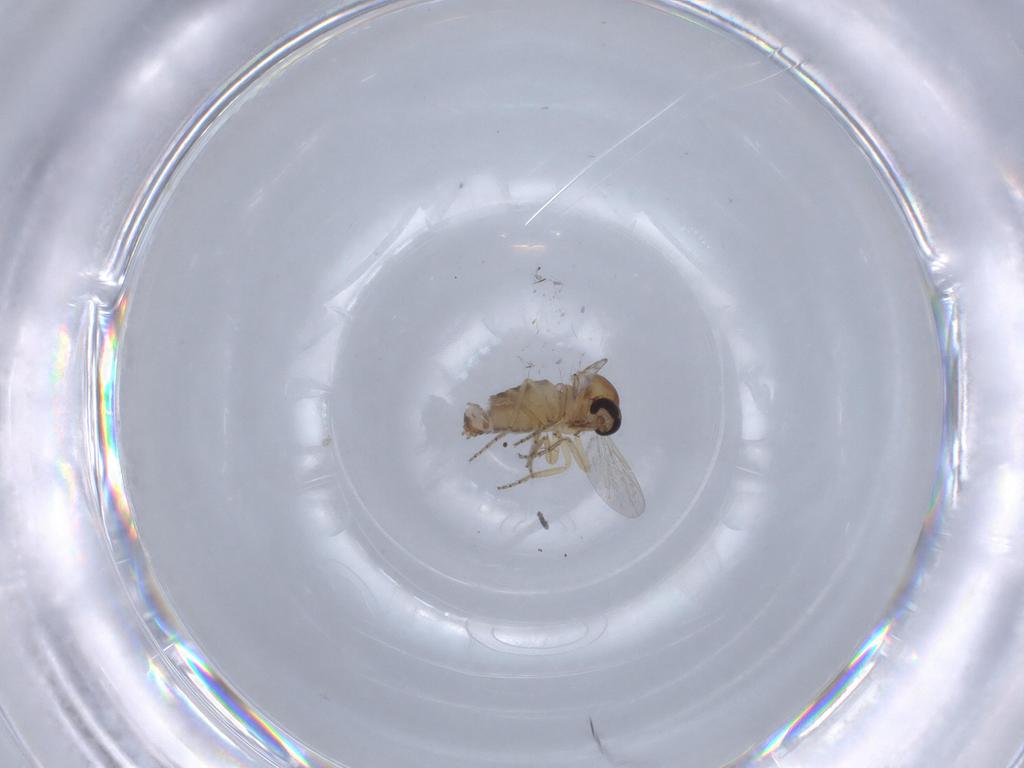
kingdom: Animalia
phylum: Arthropoda
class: Insecta
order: Diptera
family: Ceratopogonidae
